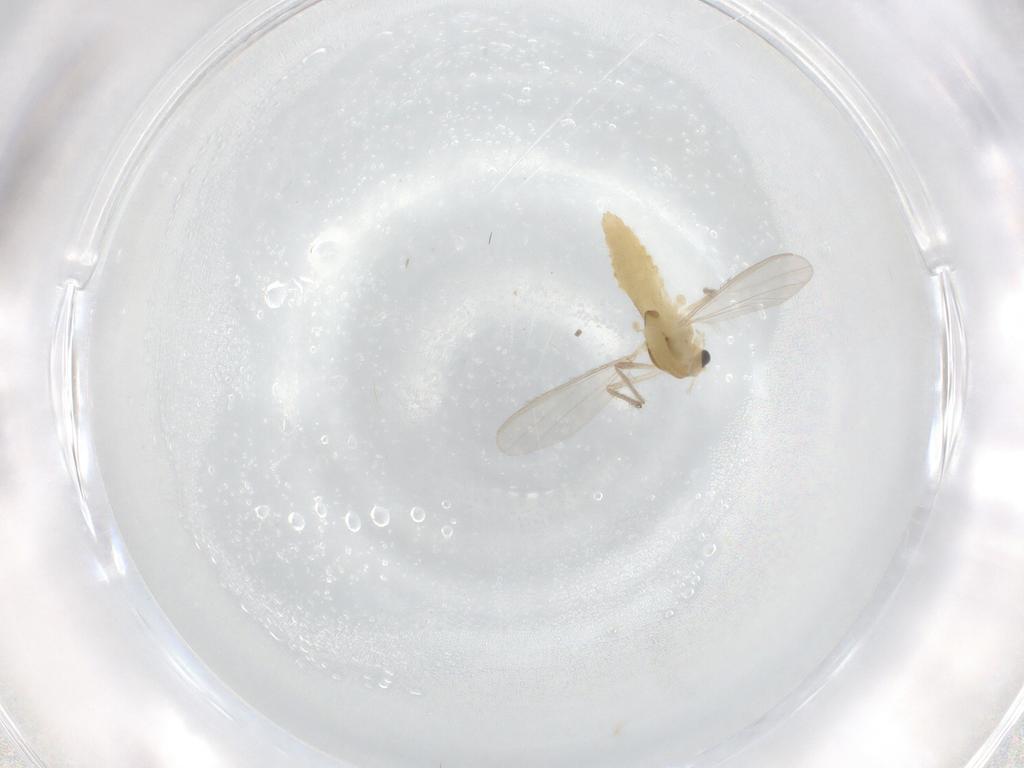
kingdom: Animalia
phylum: Arthropoda
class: Insecta
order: Diptera
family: Chironomidae
